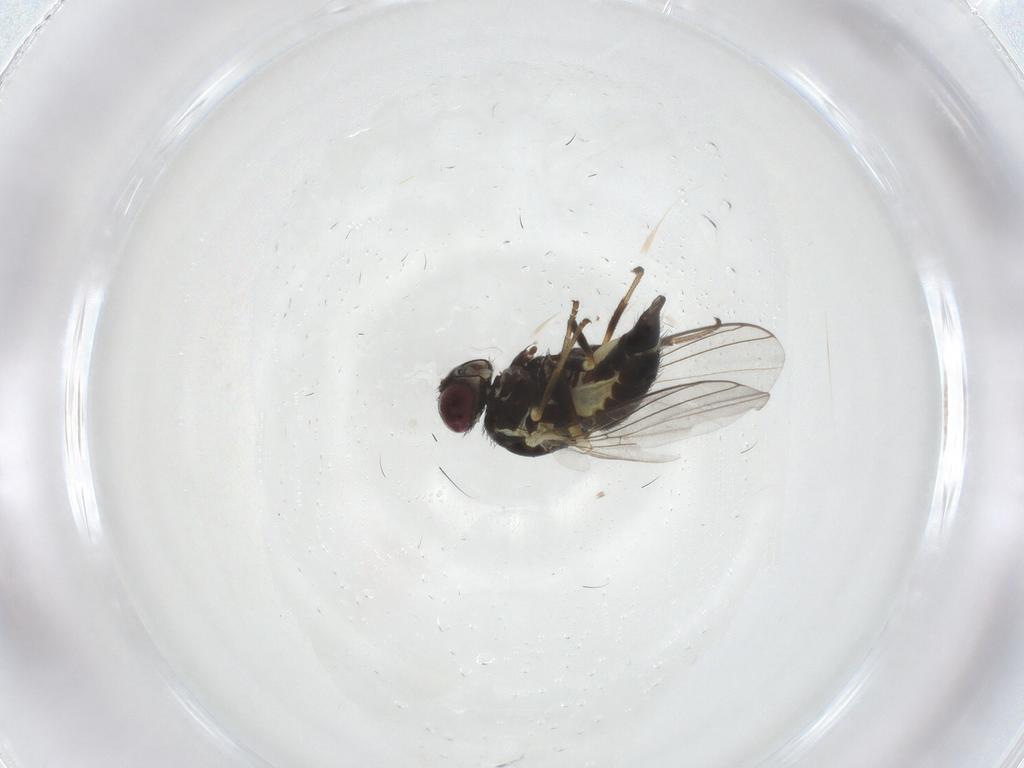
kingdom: Animalia
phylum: Arthropoda
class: Insecta
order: Diptera
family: Agromyzidae
